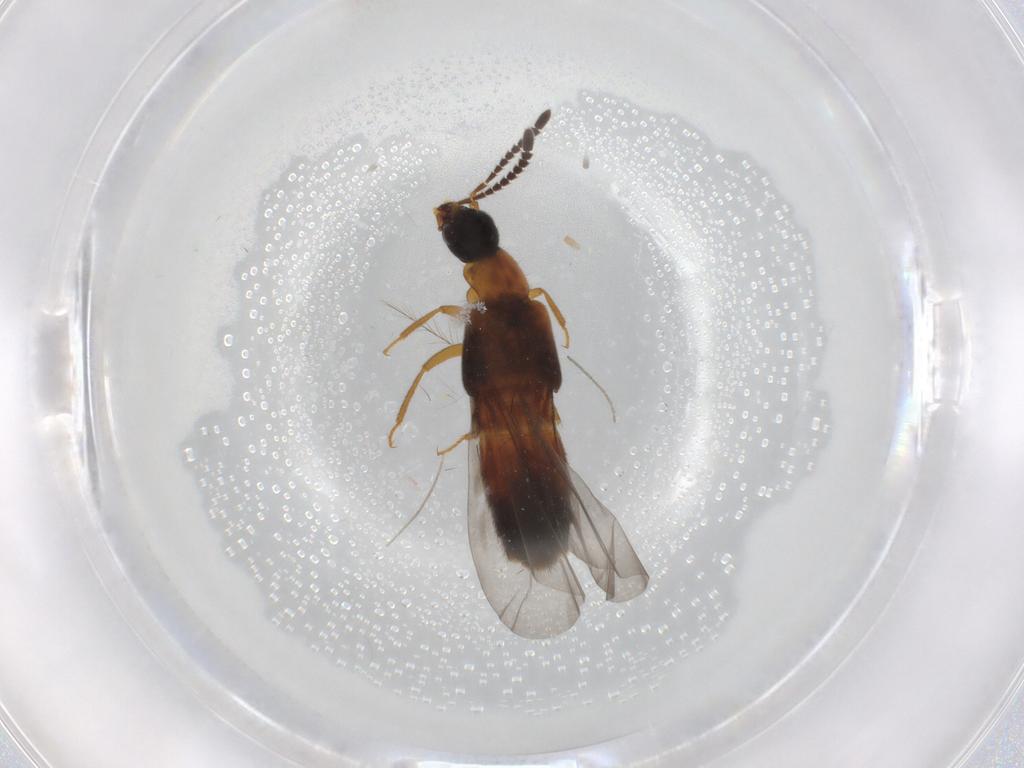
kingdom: Animalia
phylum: Arthropoda
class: Insecta
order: Coleoptera
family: Staphylinidae
